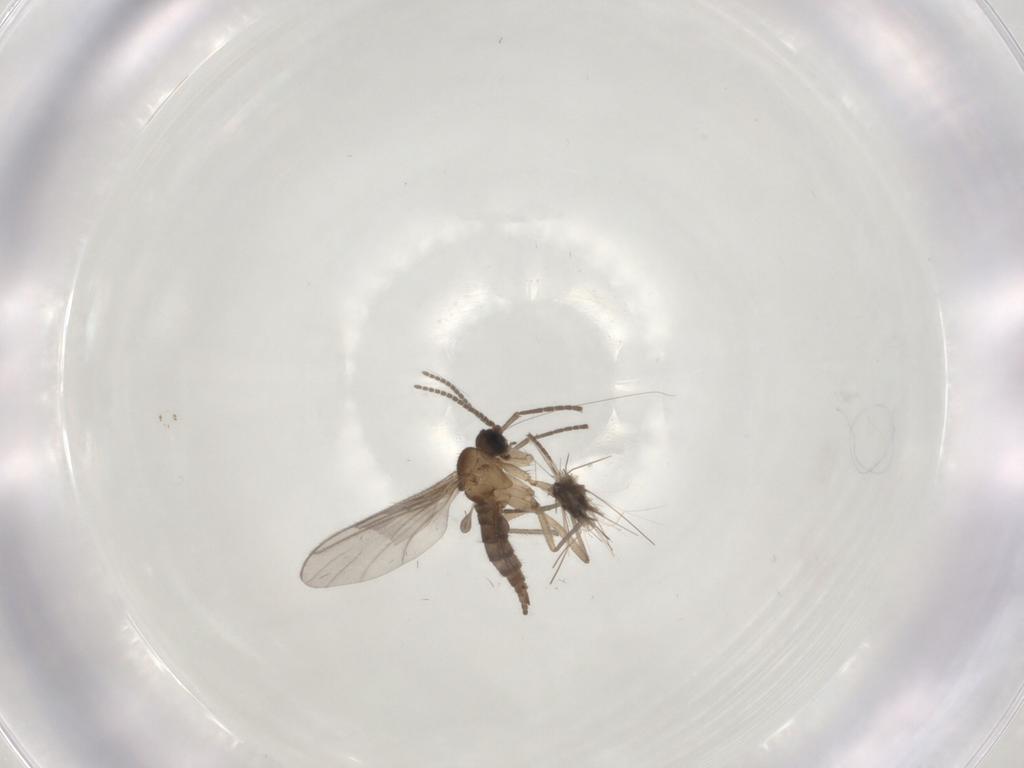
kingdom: Animalia
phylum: Arthropoda
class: Insecta
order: Diptera
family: Sciaridae
